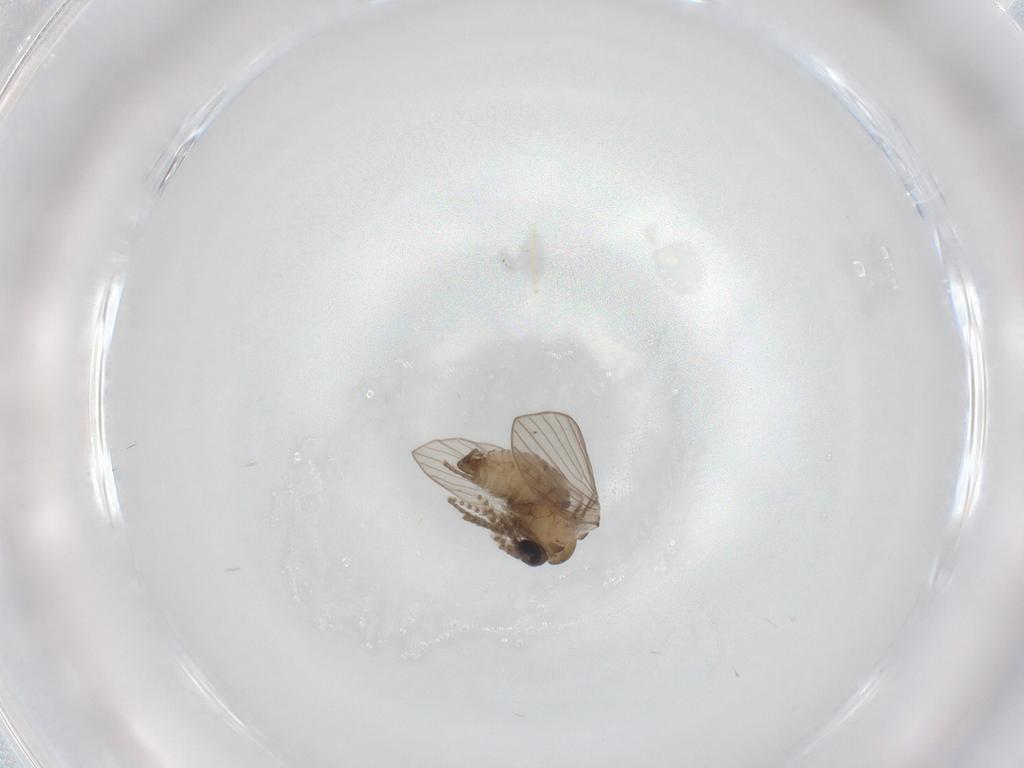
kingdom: Animalia
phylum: Arthropoda
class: Insecta
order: Diptera
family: Psychodidae
